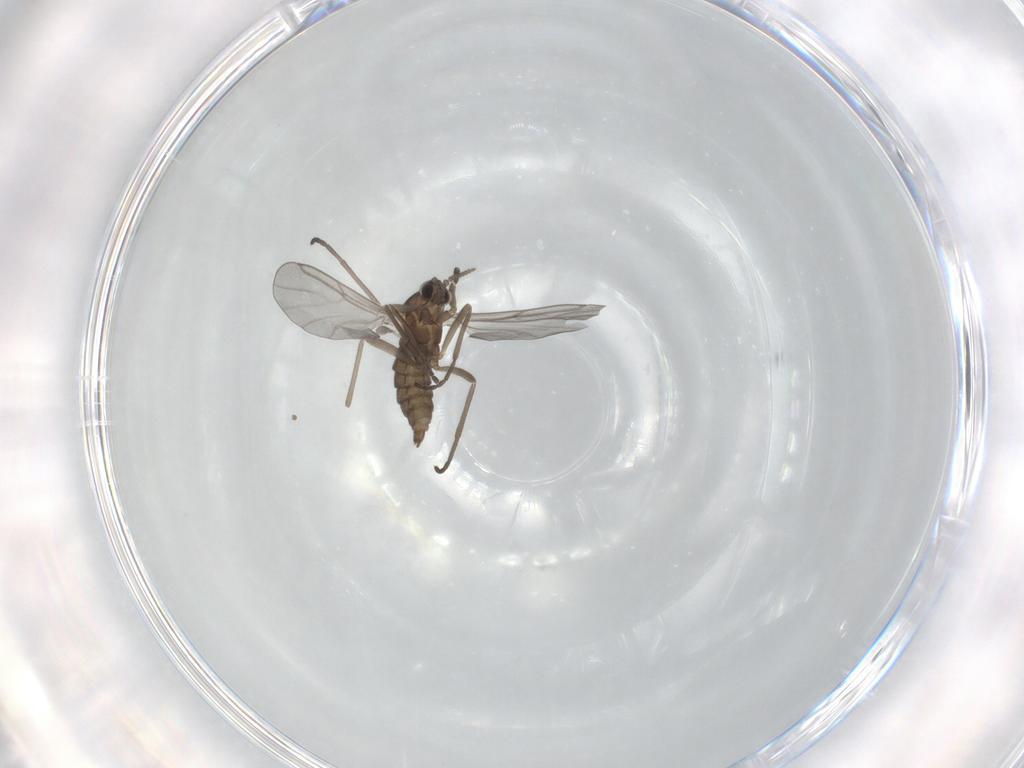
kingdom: Animalia
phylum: Arthropoda
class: Insecta
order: Diptera
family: Cecidomyiidae
